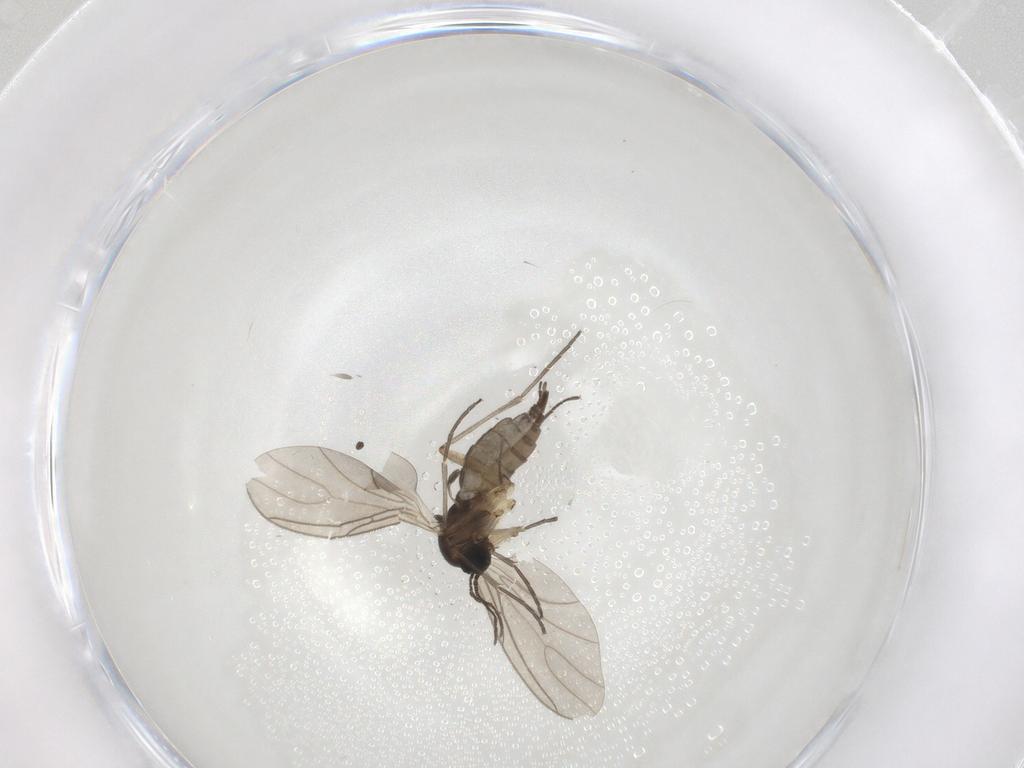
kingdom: Animalia
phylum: Arthropoda
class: Insecta
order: Diptera
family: Sciaridae
